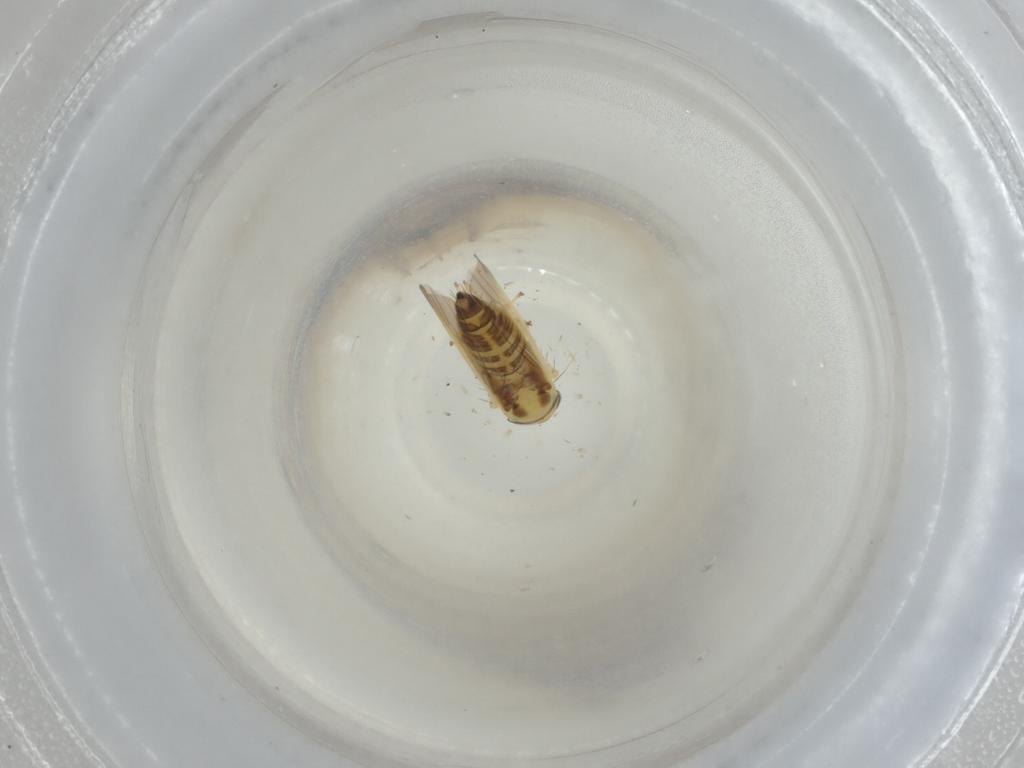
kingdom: Animalia
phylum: Arthropoda
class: Insecta
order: Hemiptera
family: Cicadellidae
